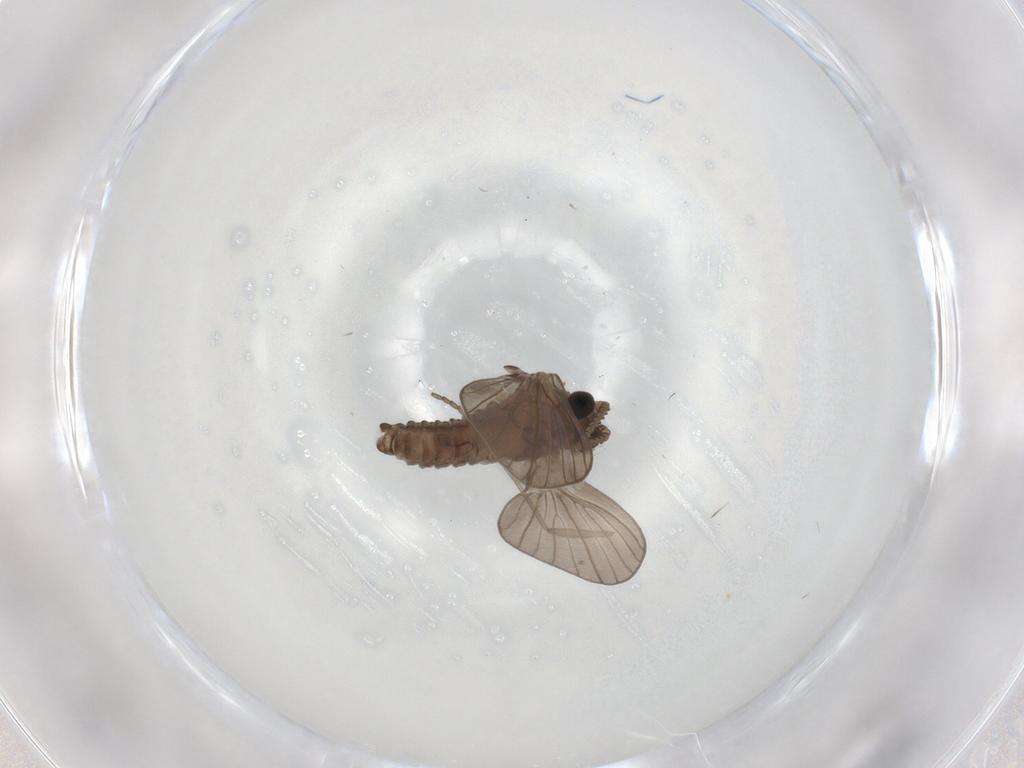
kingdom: Animalia
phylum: Arthropoda
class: Insecta
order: Diptera
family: Psychodidae
